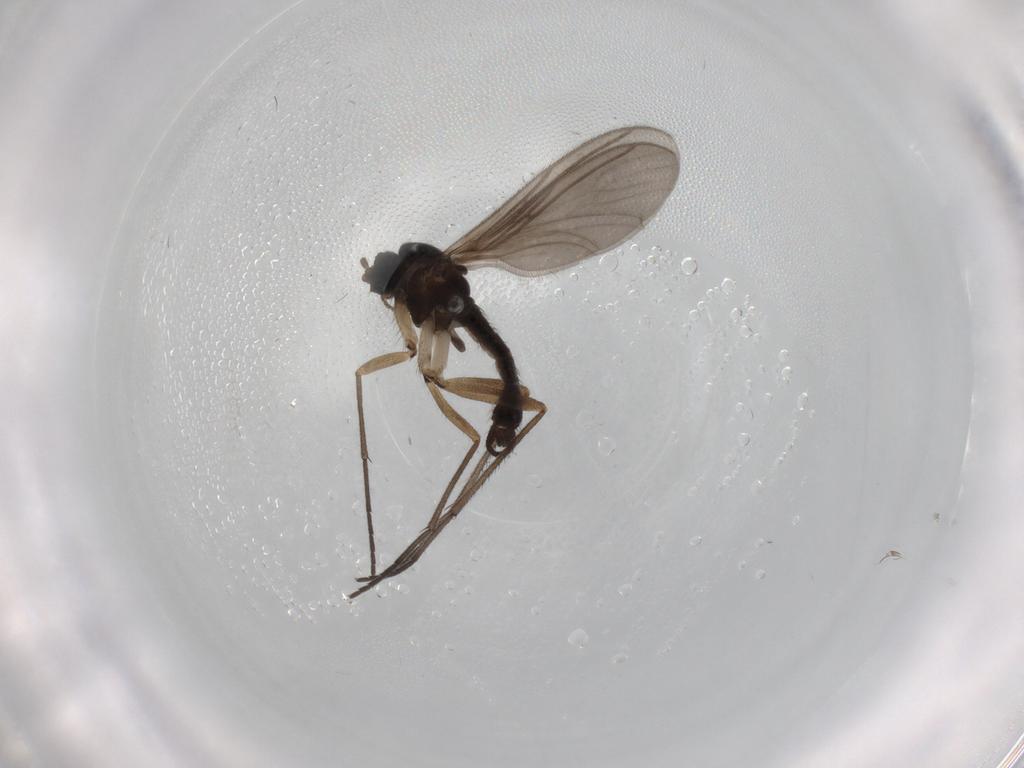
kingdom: Animalia
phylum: Arthropoda
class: Insecta
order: Diptera
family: Sciaridae
